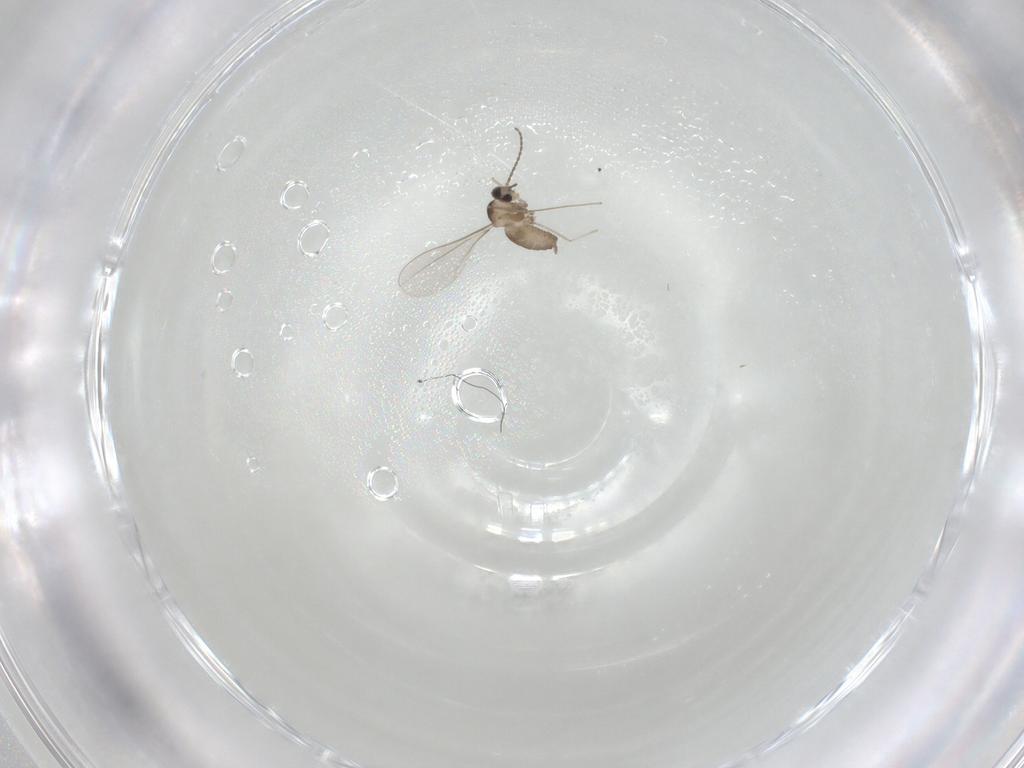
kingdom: Animalia
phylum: Arthropoda
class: Insecta
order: Diptera
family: Cecidomyiidae
